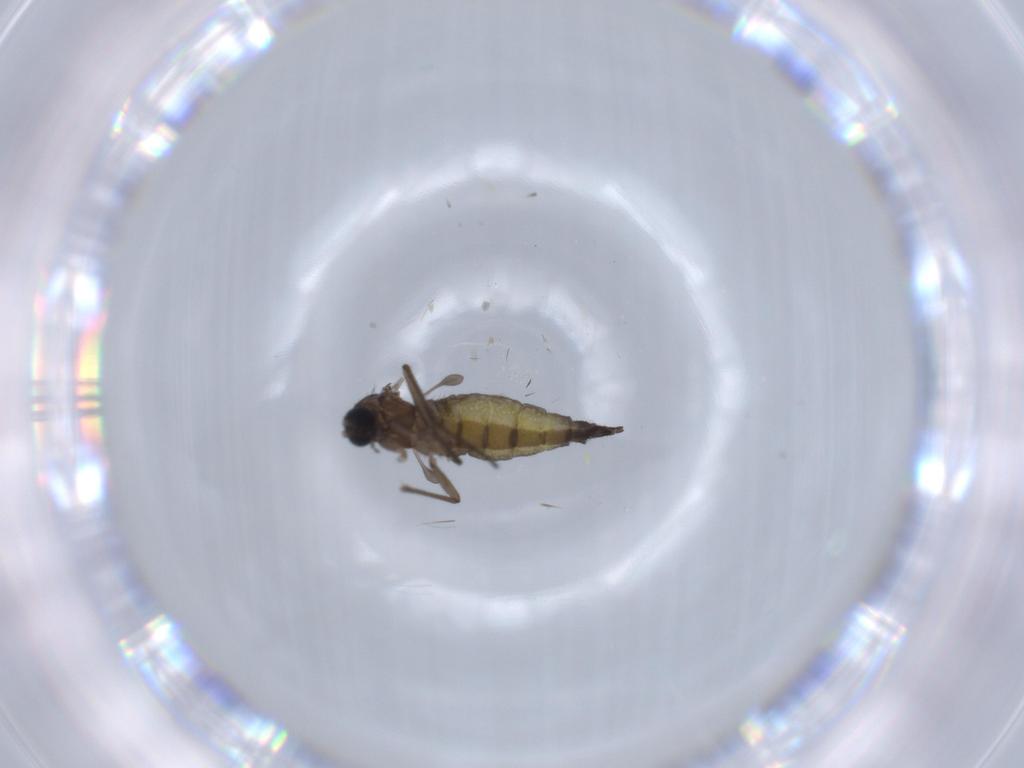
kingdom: Animalia
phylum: Arthropoda
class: Insecta
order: Diptera
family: Sciaridae
